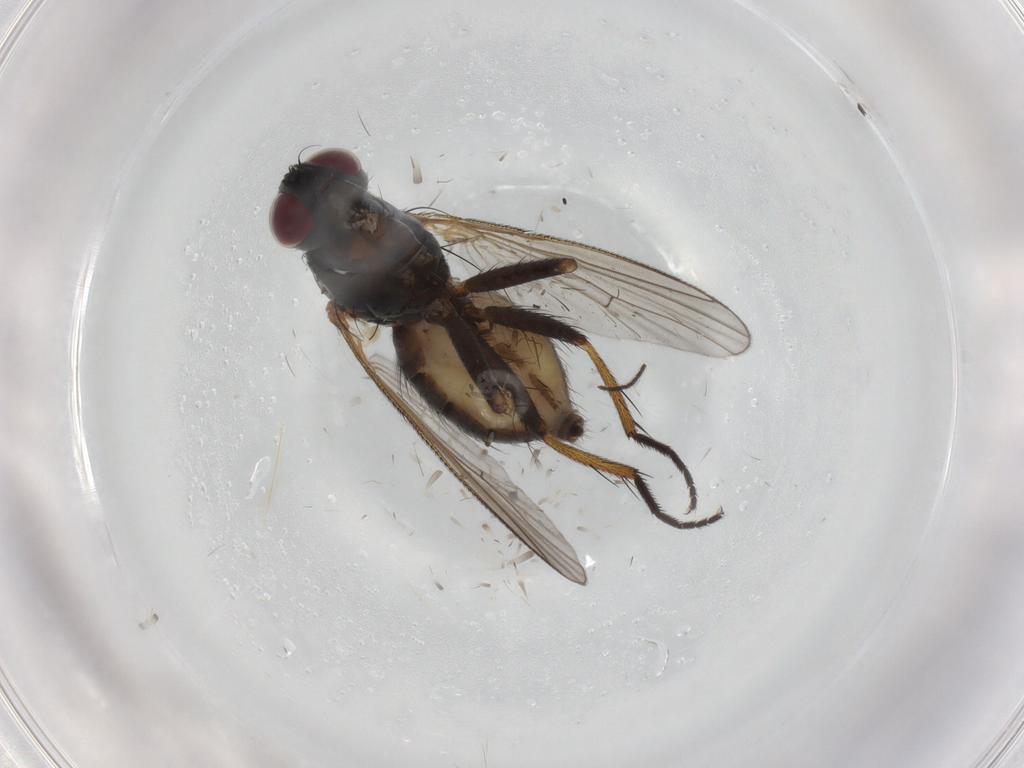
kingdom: Animalia
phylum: Arthropoda
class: Insecta
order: Diptera
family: Muscidae
